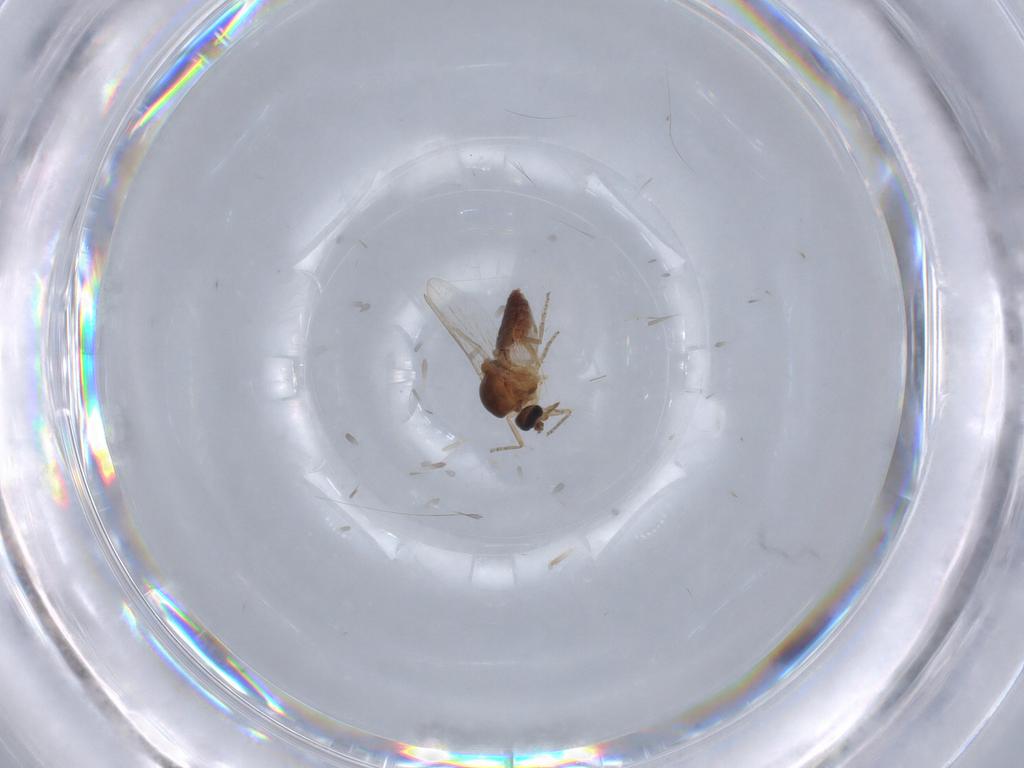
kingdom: Animalia
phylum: Arthropoda
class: Insecta
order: Diptera
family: Ceratopogonidae
